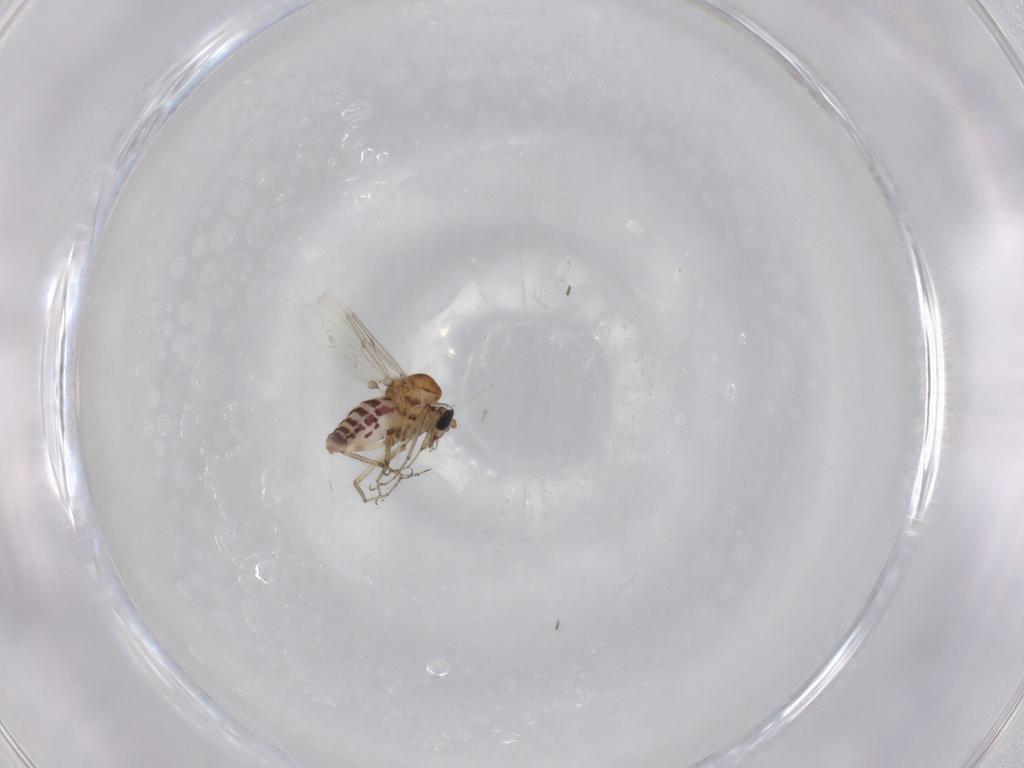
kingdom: Animalia
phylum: Arthropoda
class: Insecta
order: Diptera
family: Ceratopogonidae
